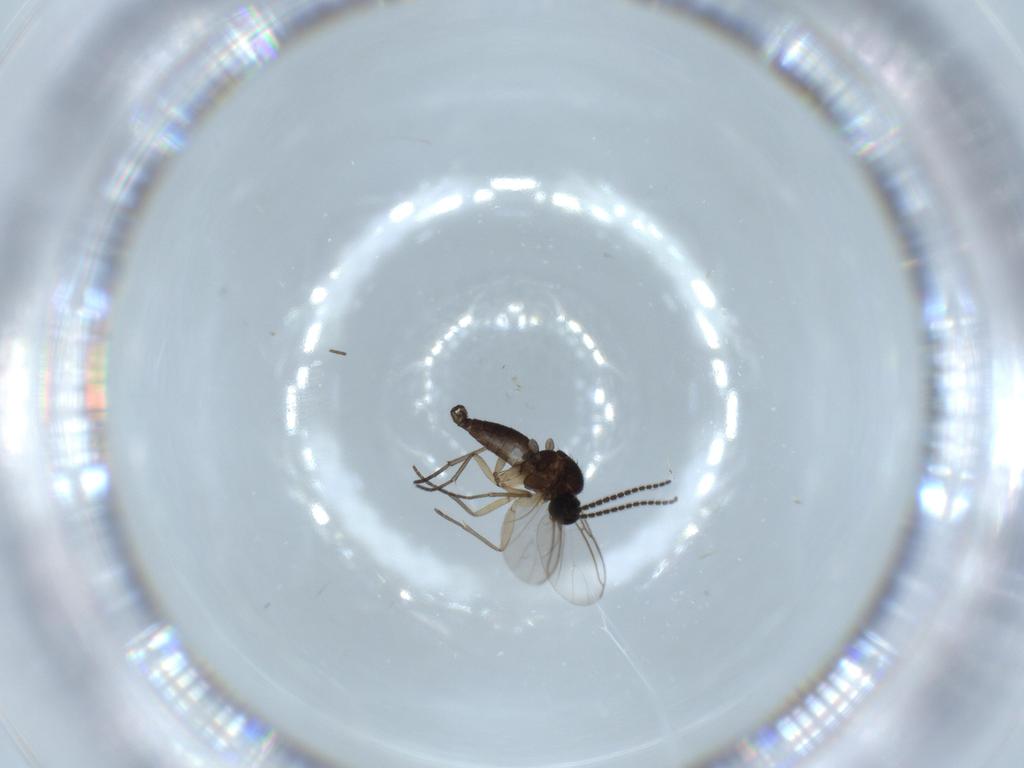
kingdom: Animalia
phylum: Arthropoda
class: Insecta
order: Diptera
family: Sciaridae
